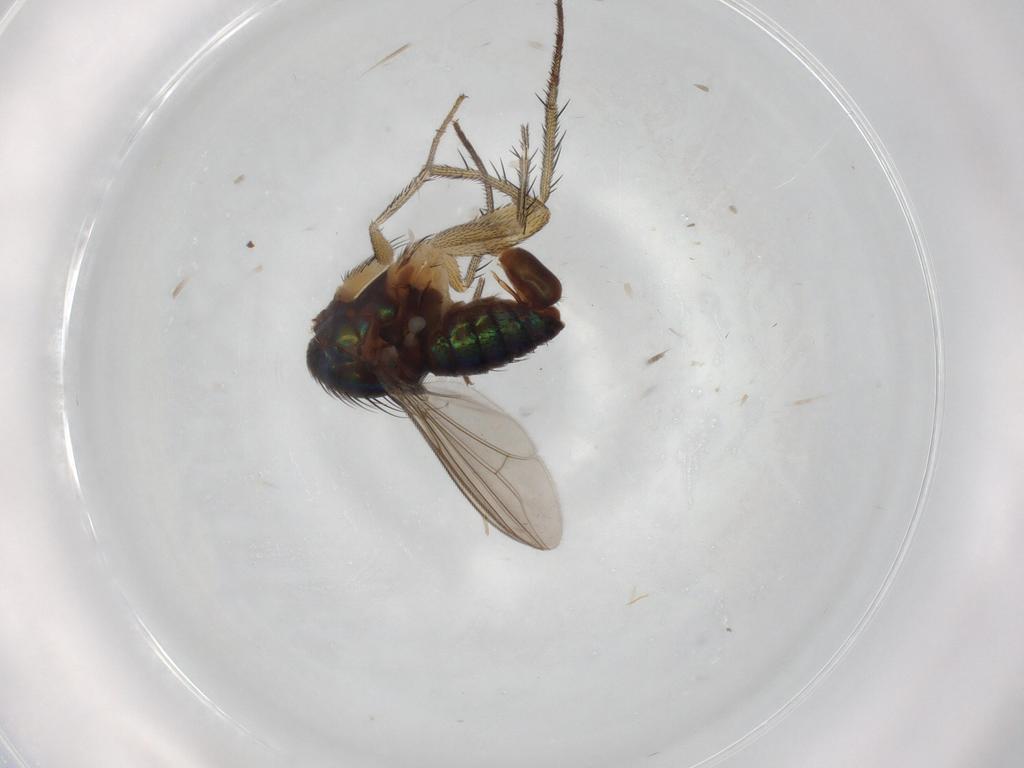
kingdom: Animalia
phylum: Arthropoda
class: Insecta
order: Diptera
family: Dolichopodidae
